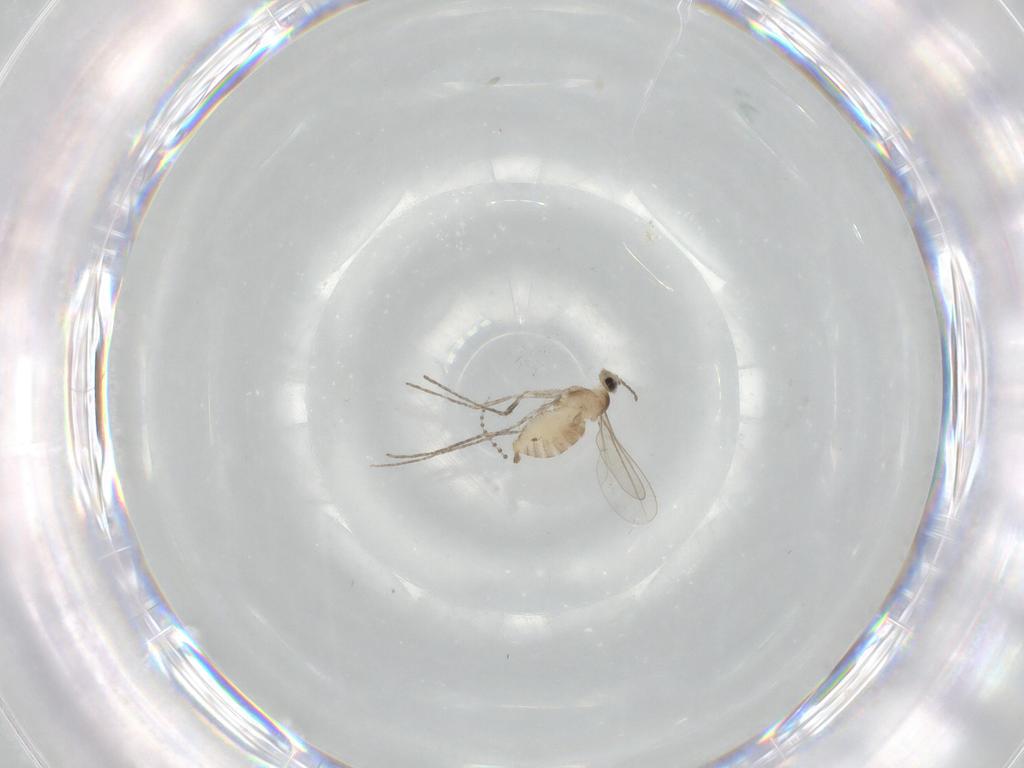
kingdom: Animalia
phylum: Arthropoda
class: Insecta
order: Diptera
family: Cecidomyiidae
